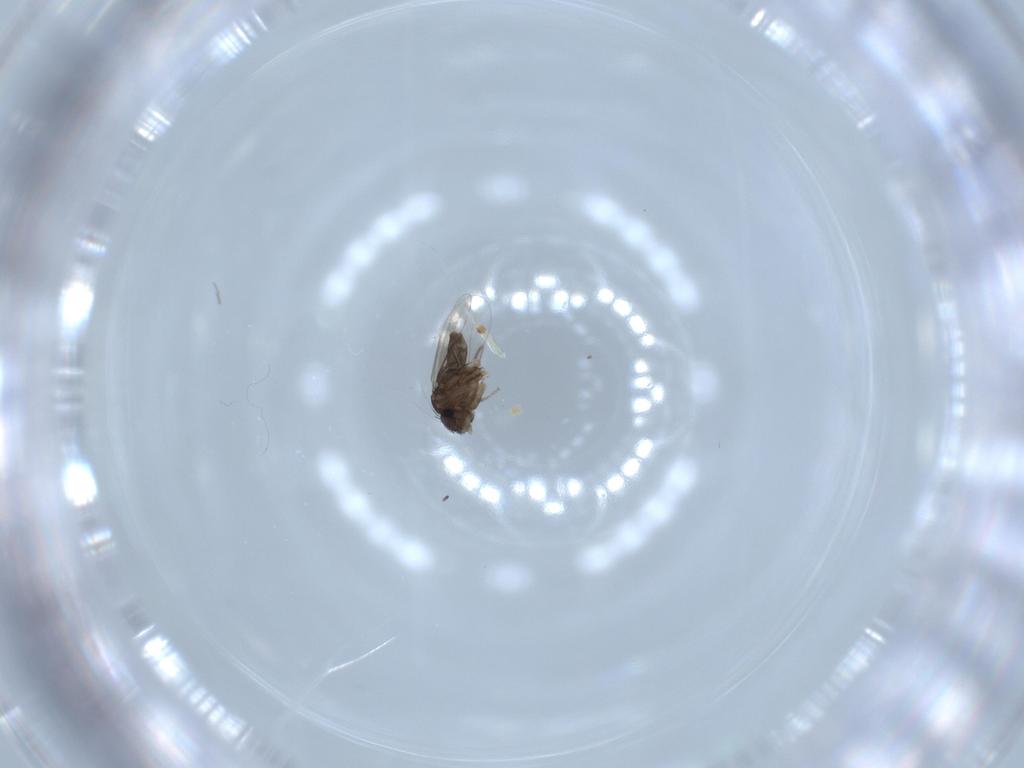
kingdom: Animalia
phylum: Arthropoda
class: Insecta
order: Diptera
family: Phoridae
